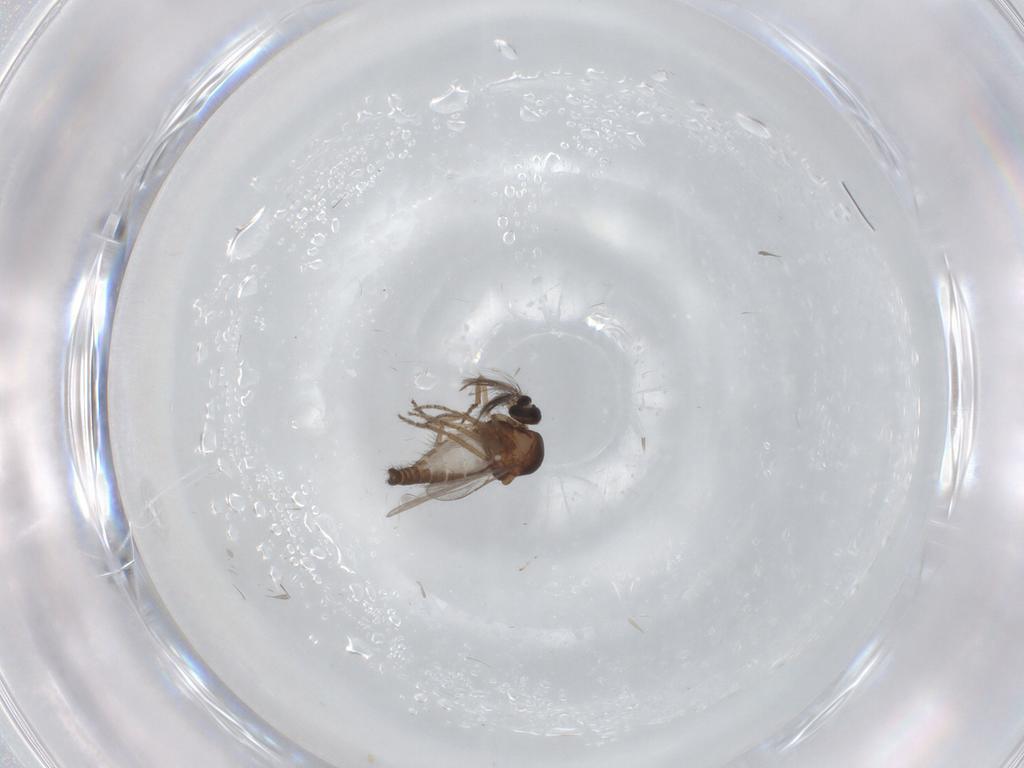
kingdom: Animalia
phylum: Arthropoda
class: Insecta
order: Diptera
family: Ceratopogonidae
